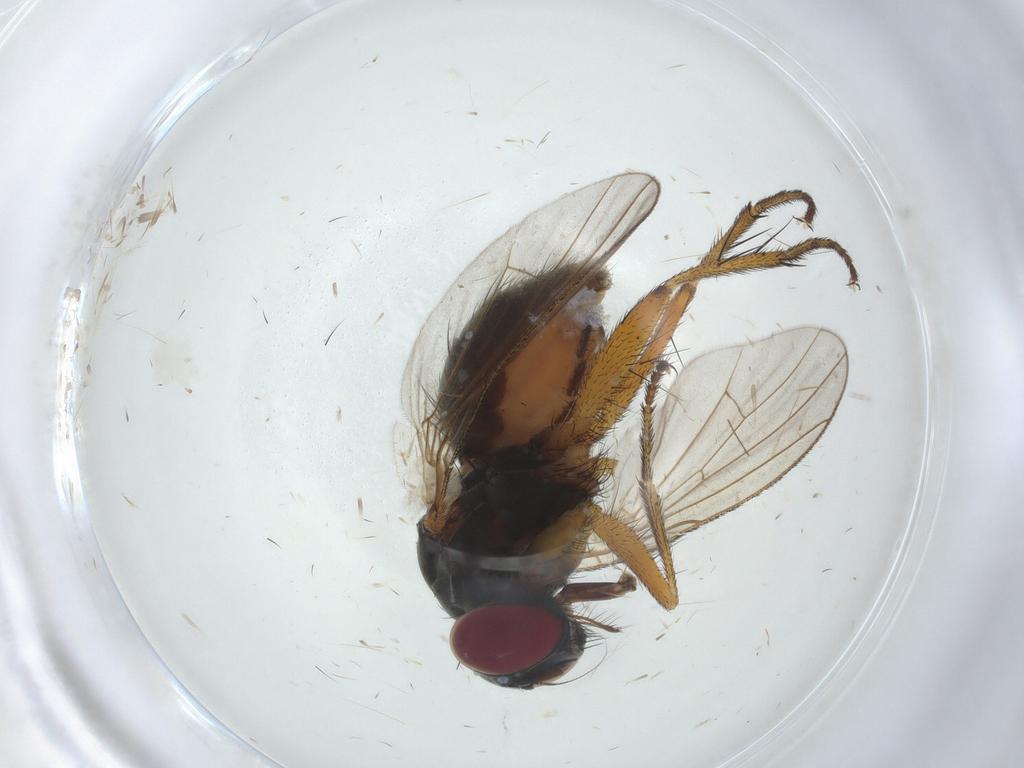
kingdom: Animalia
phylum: Arthropoda
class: Insecta
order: Diptera
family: Muscidae
